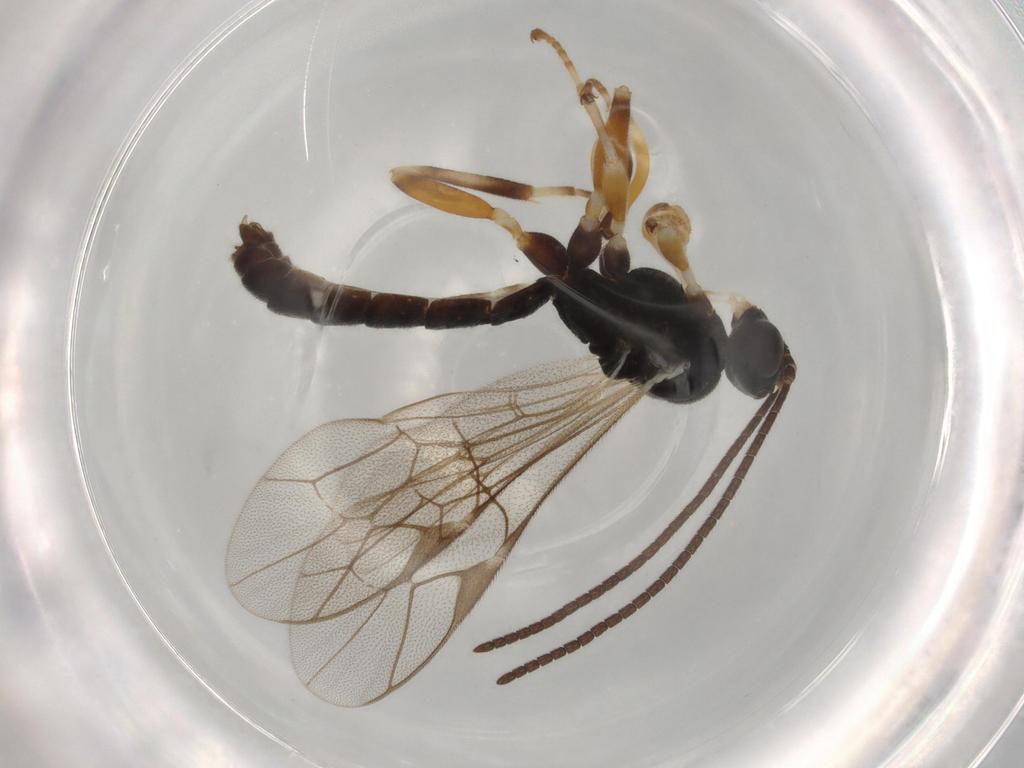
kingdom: Animalia
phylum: Arthropoda
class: Insecta
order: Hymenoptera
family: Ichneumonidae
